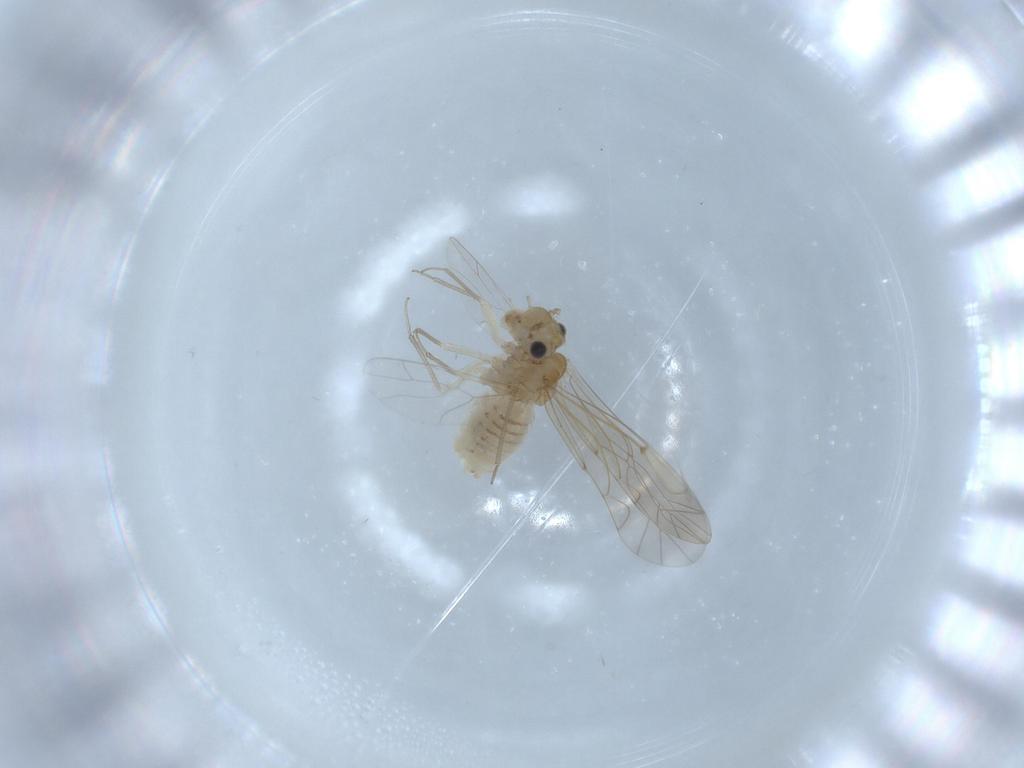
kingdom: Animalia
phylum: Arthropoda
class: Insecta
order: Psocodea
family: Lachesillidae
